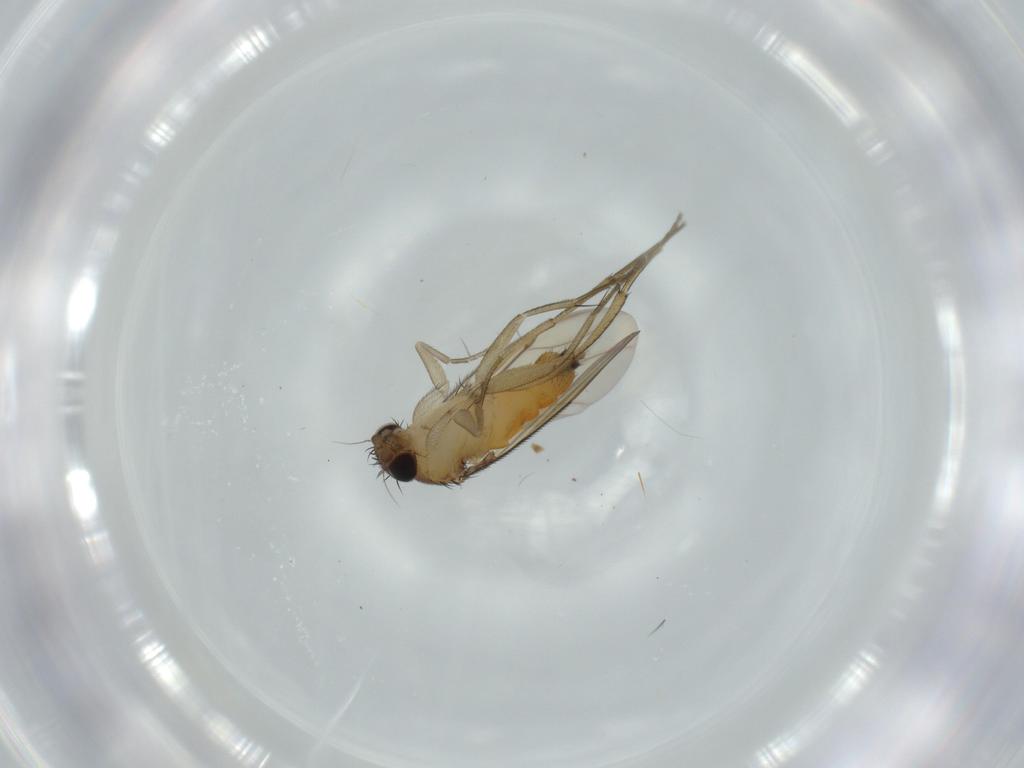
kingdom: Animalia
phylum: Arthropoda
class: Insecta
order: Diptera
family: Phoridae
